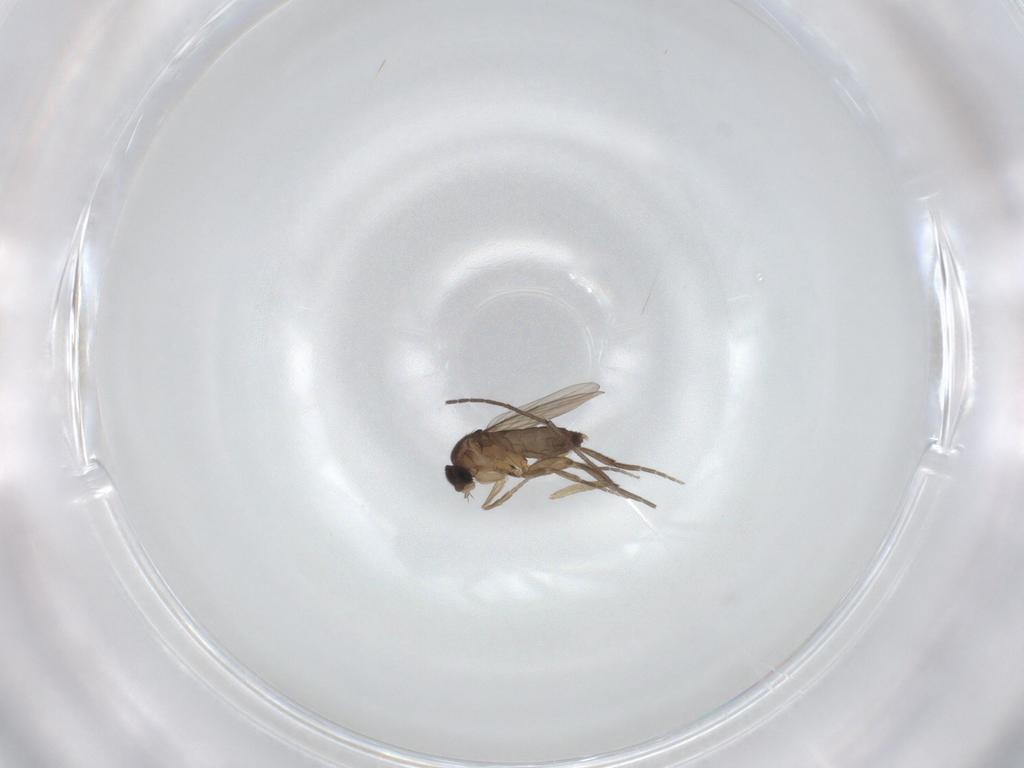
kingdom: Animalia
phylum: Arthropoda
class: Insecta
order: Diptera
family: Phoridae
